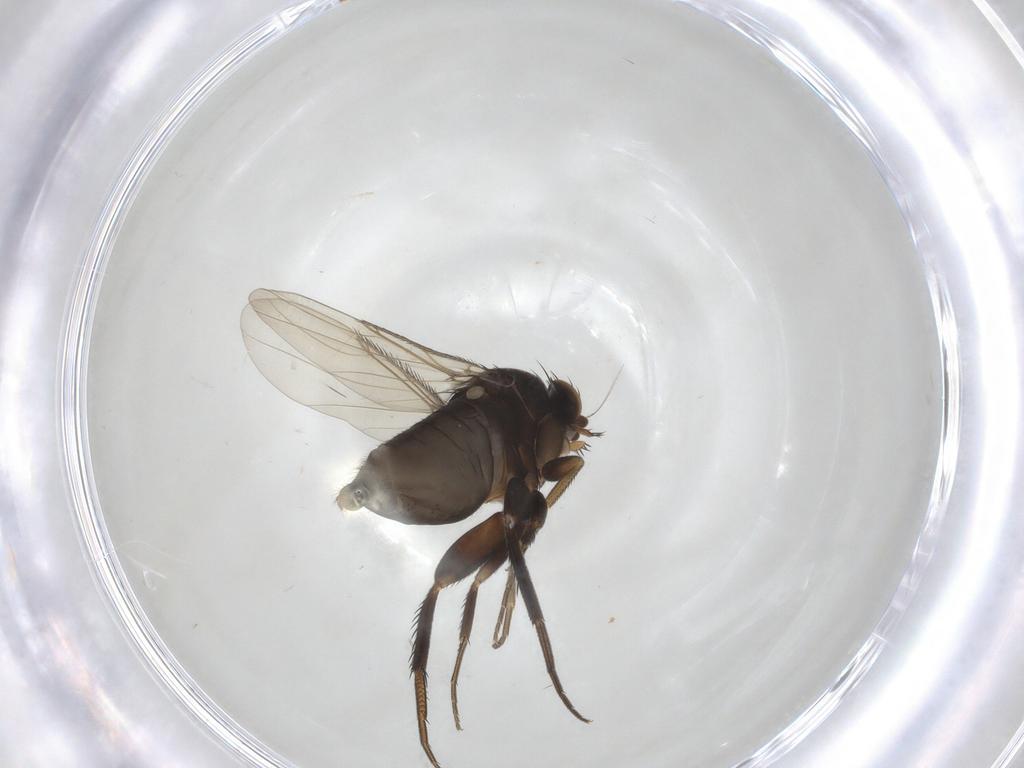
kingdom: Animalia
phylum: Arthropoda
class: Insecta
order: Diptera
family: Phoridae
